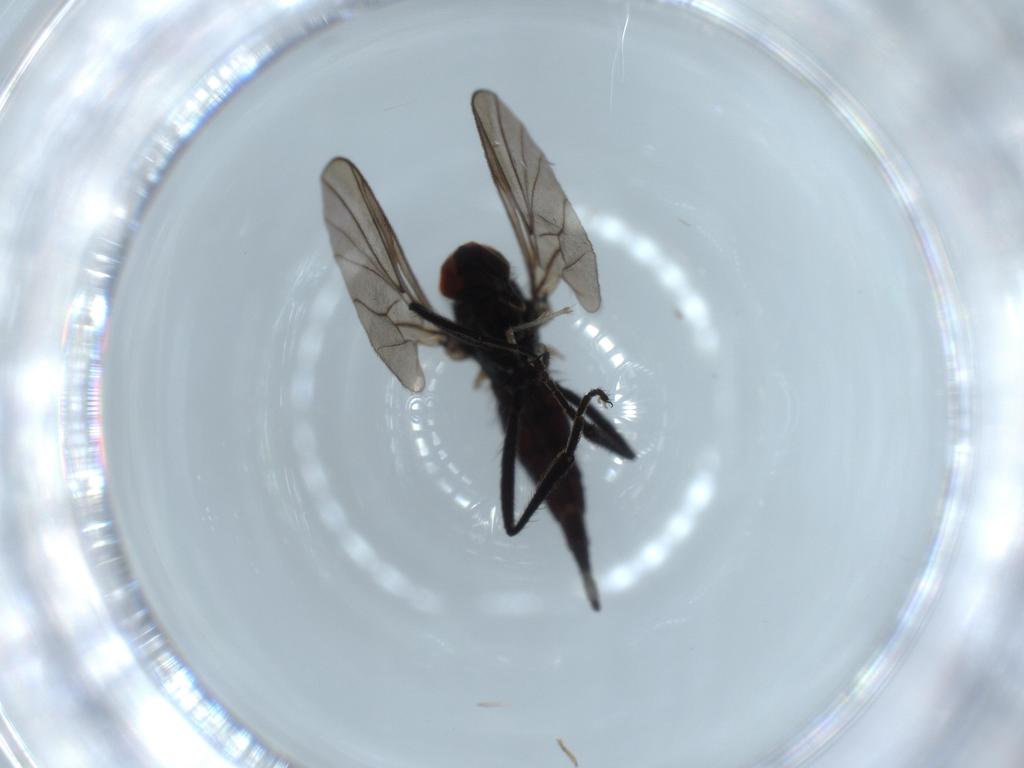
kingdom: Animalia
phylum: Arthropoda
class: Insecta
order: Diptera
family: Hybotidae
